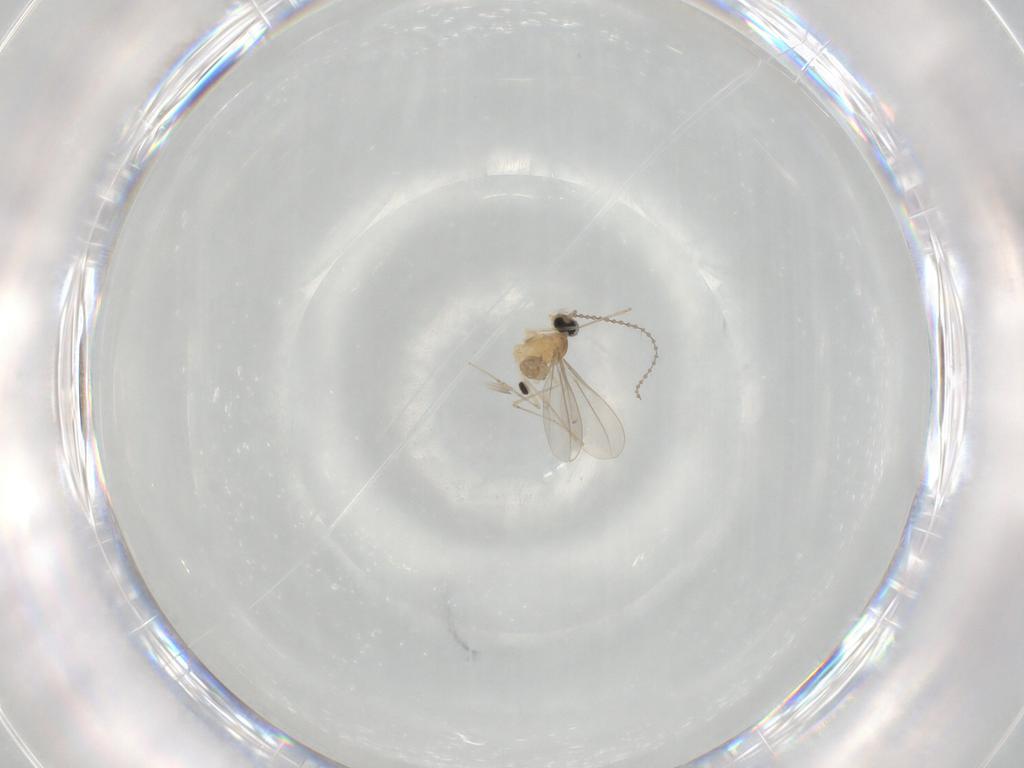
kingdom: Animalia
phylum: Arthropoda
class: Insecta
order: Diptera
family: Cecidomyiidae
